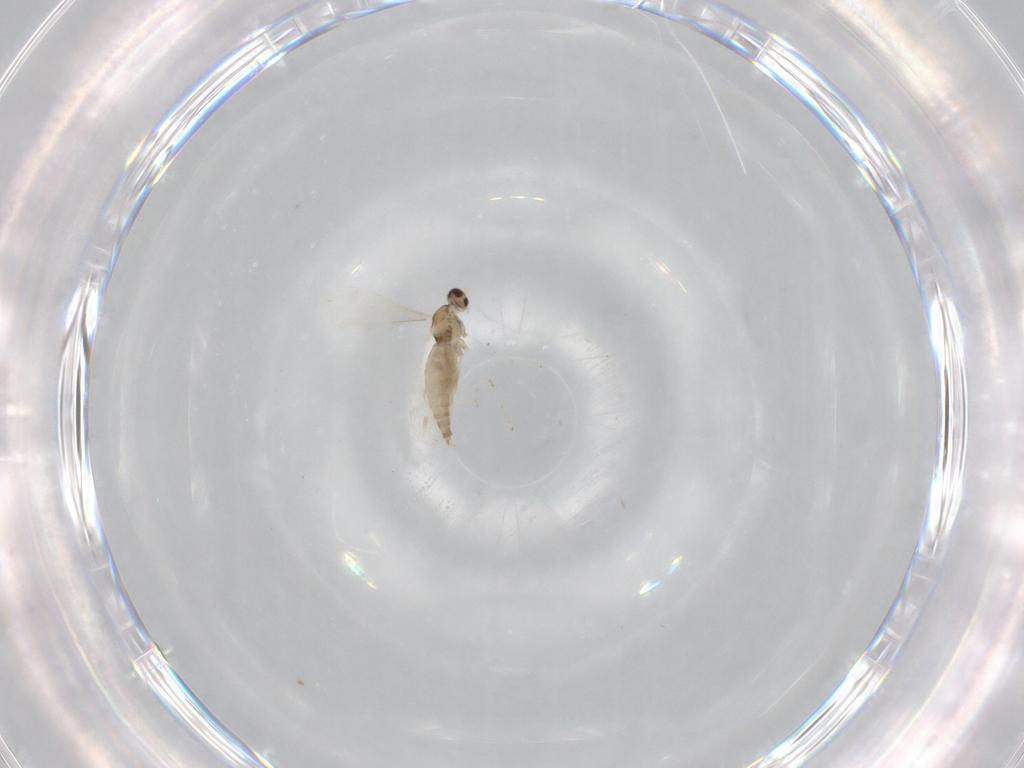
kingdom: Animalia
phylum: Arthropoda
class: Insecta
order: Diptera
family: Cecidomyiidae
